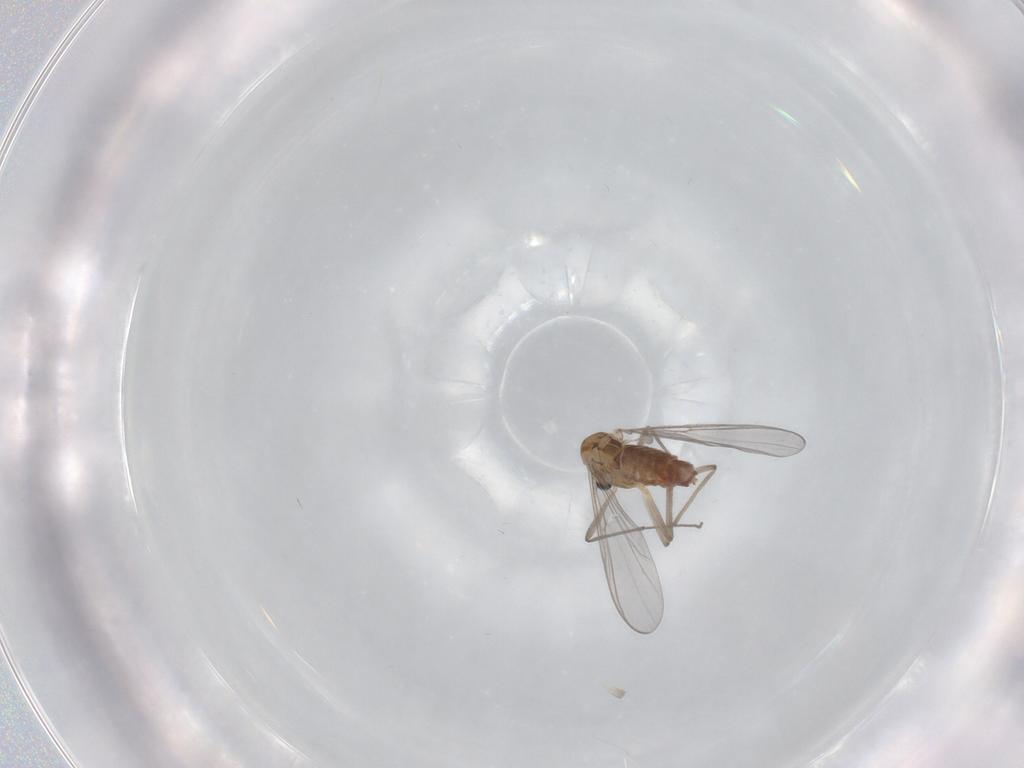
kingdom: Animalia
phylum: Arthropoda
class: Insecta
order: Diptera
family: Chironomidae
